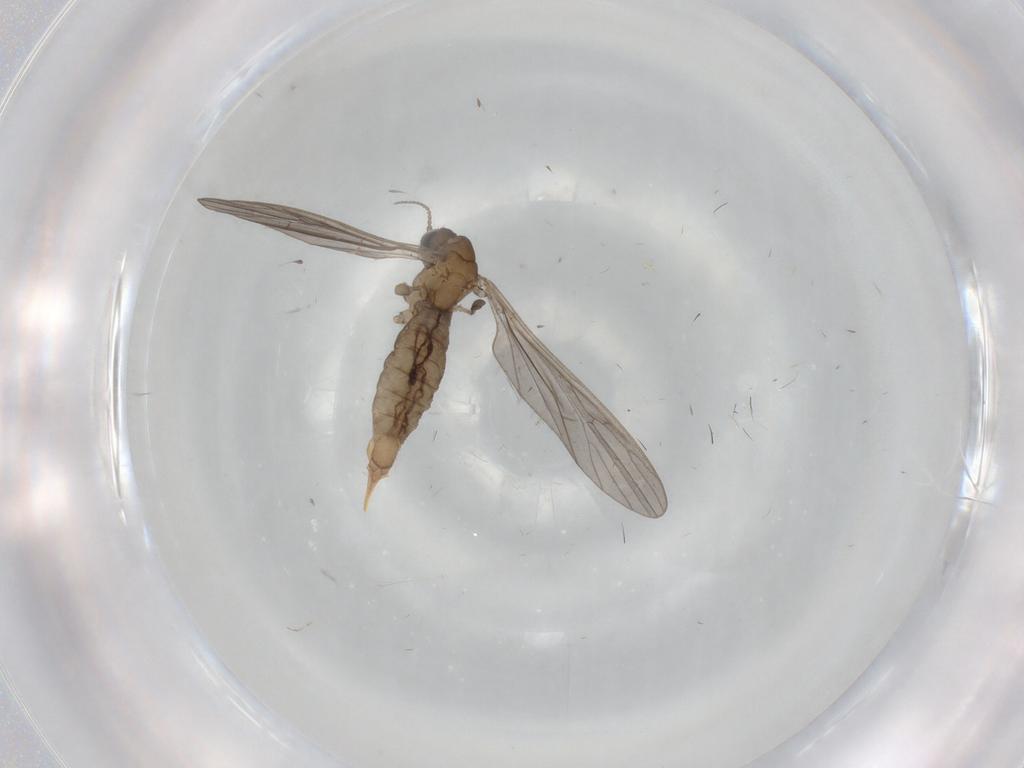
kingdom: Animalia
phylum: Arthropoda
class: Insecta
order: Diptera
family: Limoniidae
